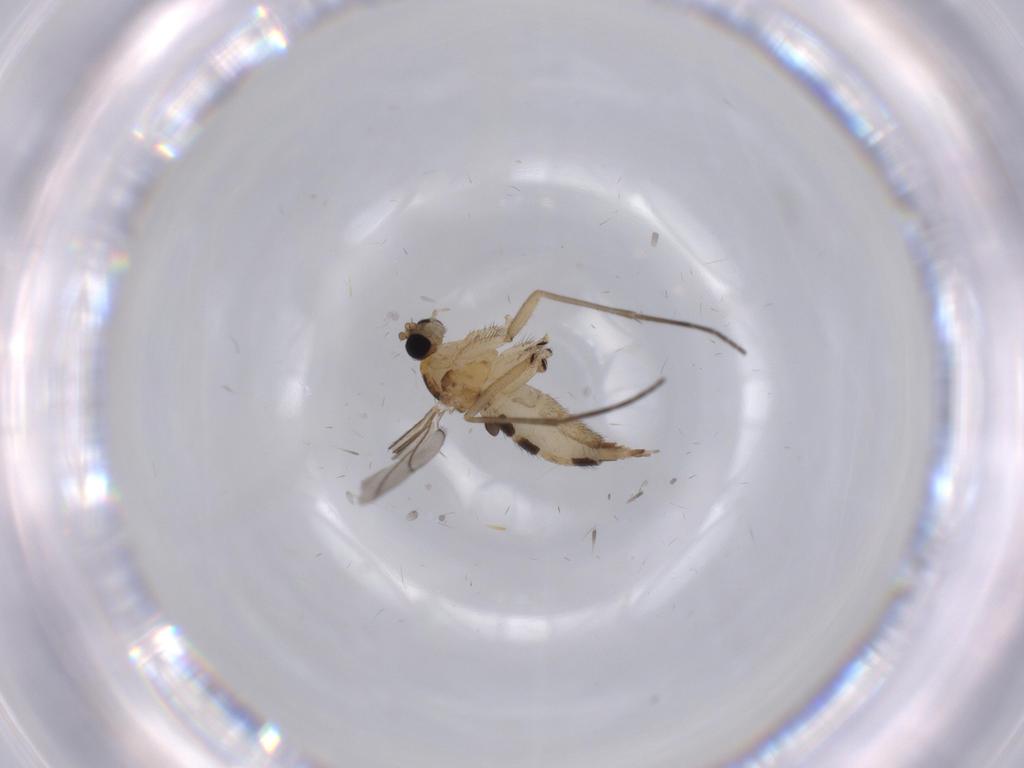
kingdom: Animalia
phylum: Arthropoda
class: Insecta
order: Diptera
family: Sciaridae
